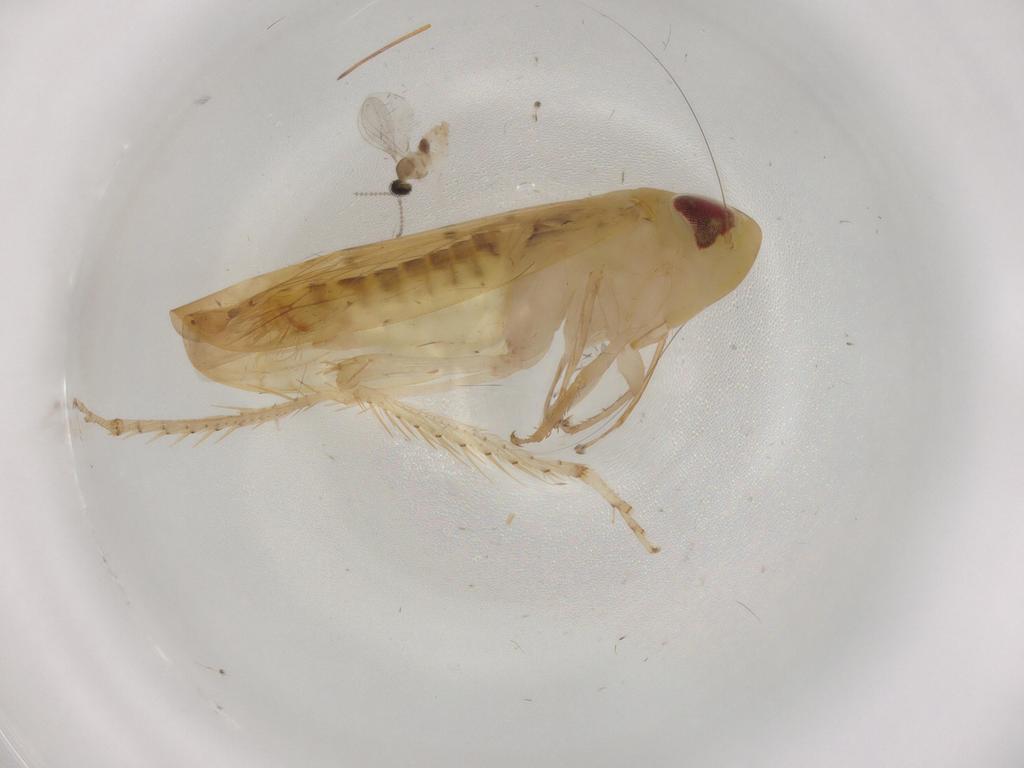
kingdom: Animalia
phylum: Arthropoda
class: Insecta
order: Hemiptera
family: Cicadellidae
